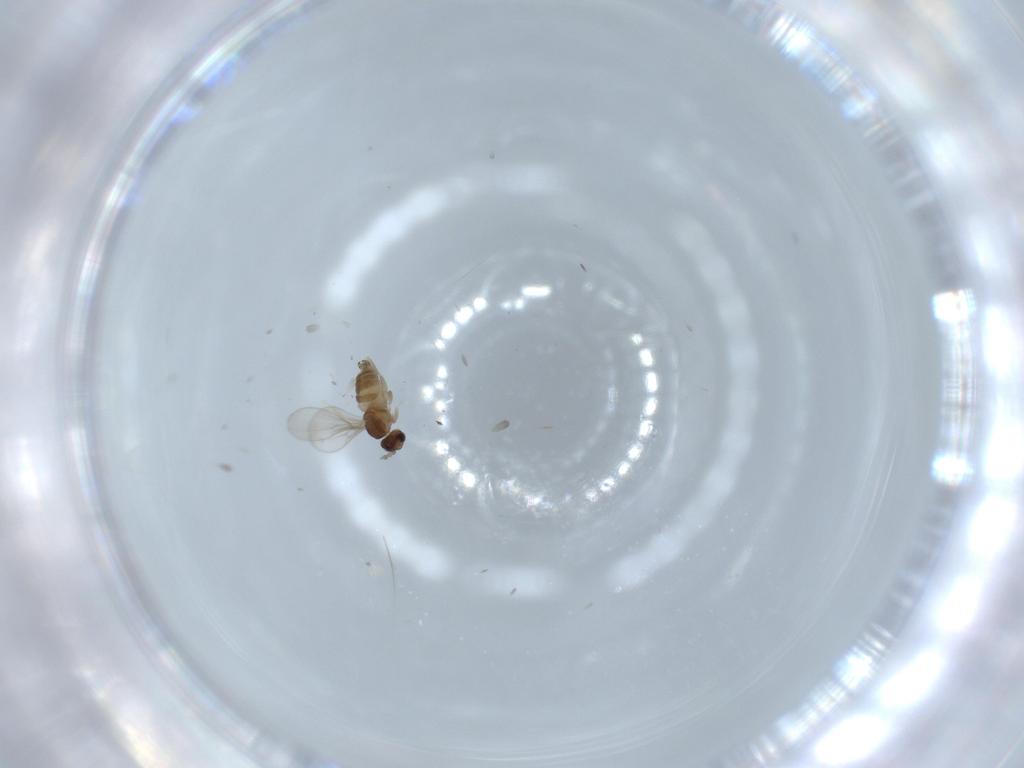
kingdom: Animalia
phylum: Arthropoda
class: Insecta
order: Diptera
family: Cecidomyiidae
